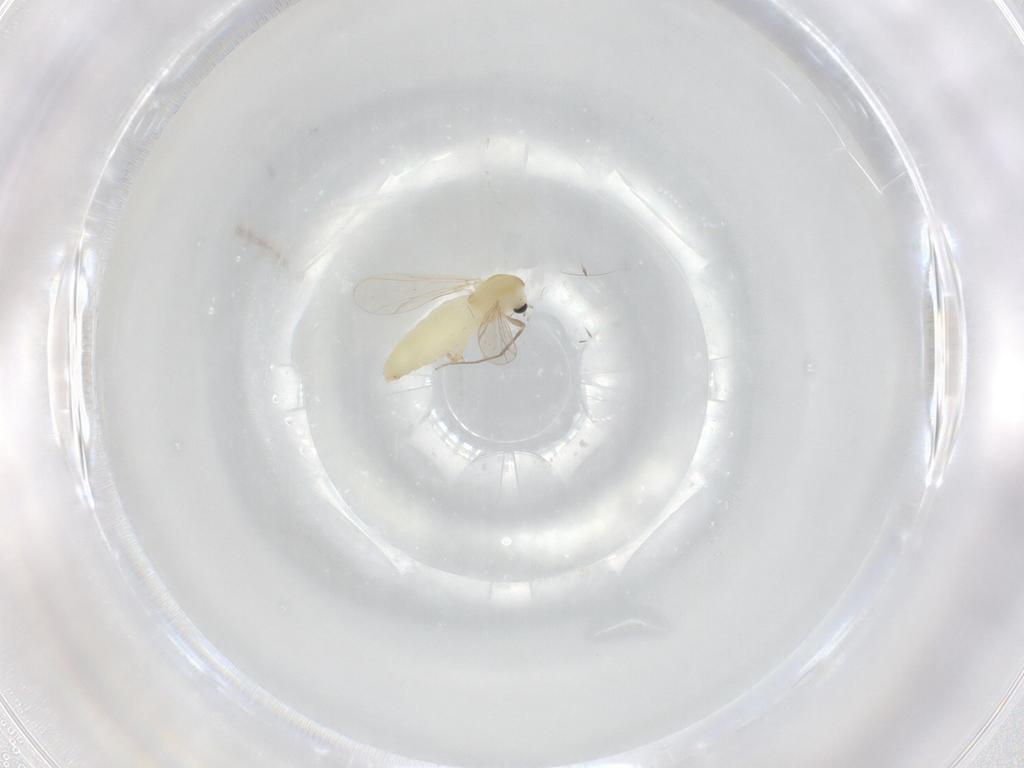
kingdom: Animalia
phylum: Arthropoda
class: Insecta
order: Diptera
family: Chironomidae
